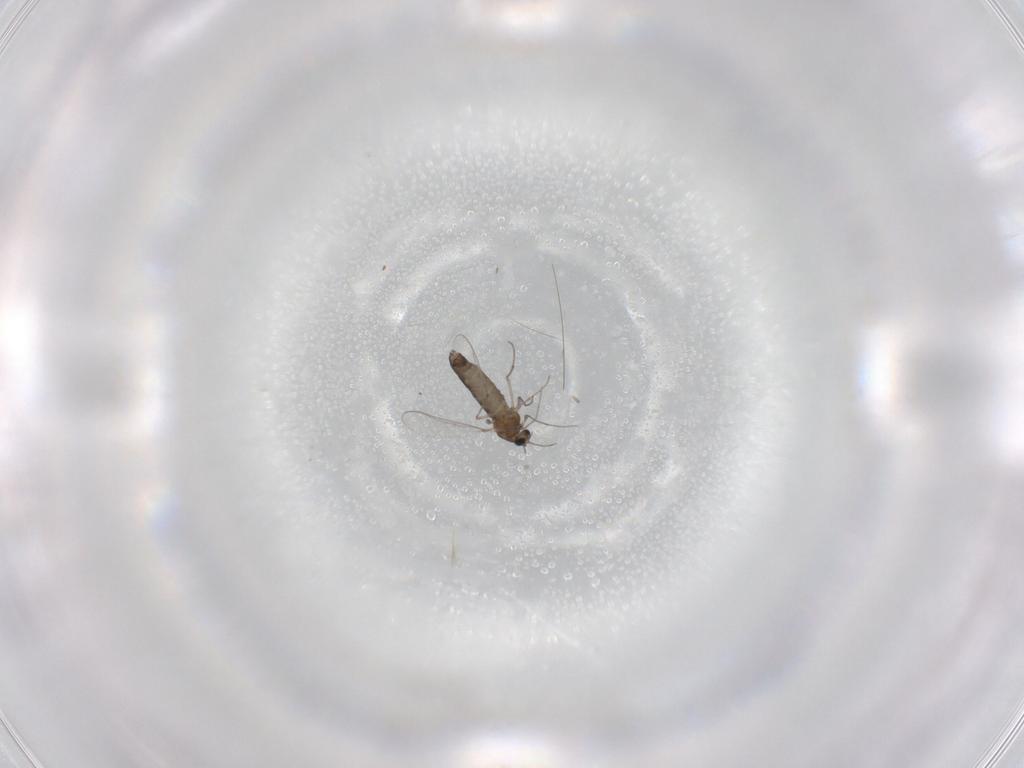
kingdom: Animalia
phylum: Arthropoda
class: Insecta
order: Diptera
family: Chironomidae
